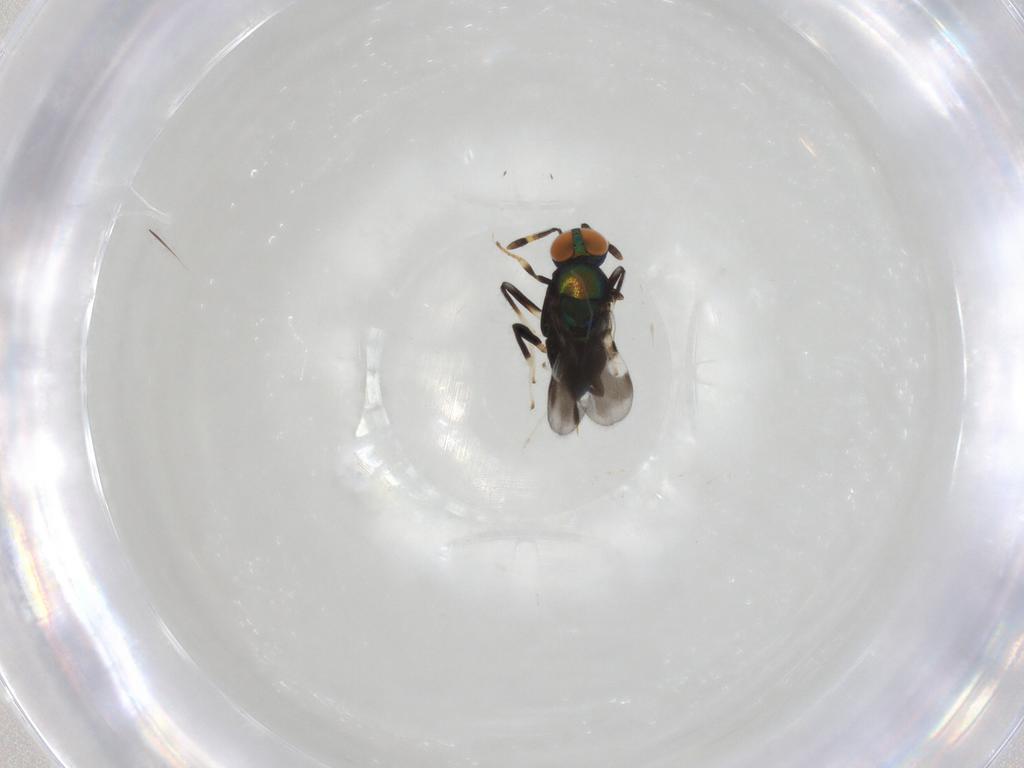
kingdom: Animalia
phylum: Arthropoda
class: Insecta
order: Hymenoptera
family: Encyrtidae
